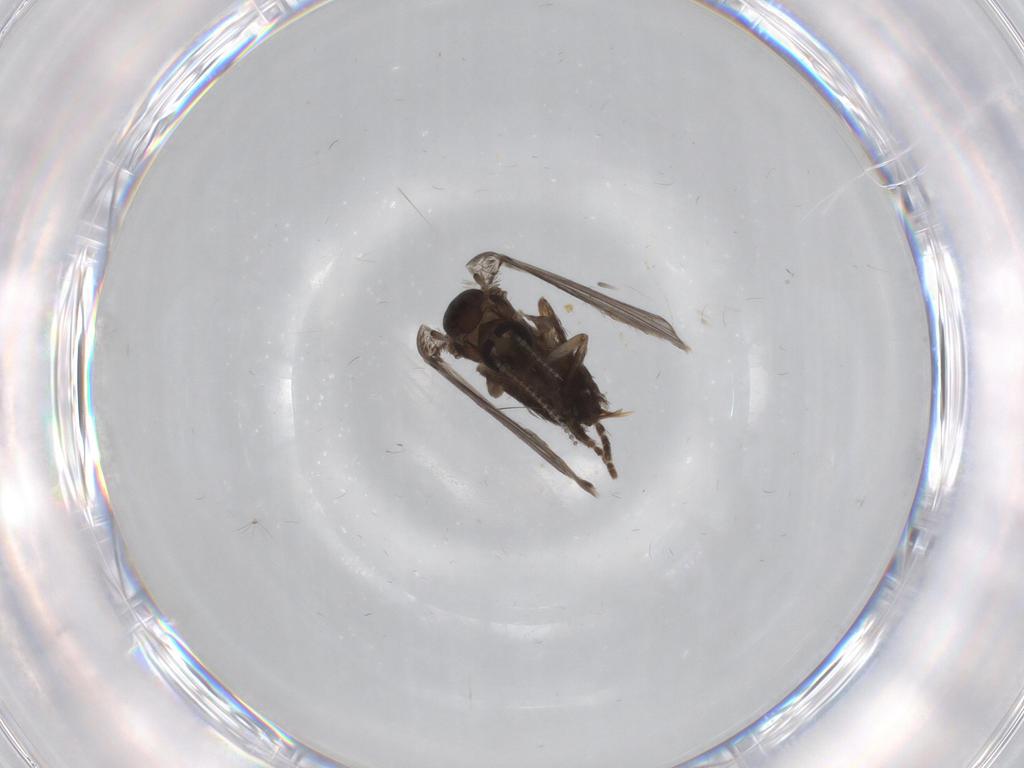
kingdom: Animalia
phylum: Arthropoda
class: Insecta
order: Diptera
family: Psychodidae
